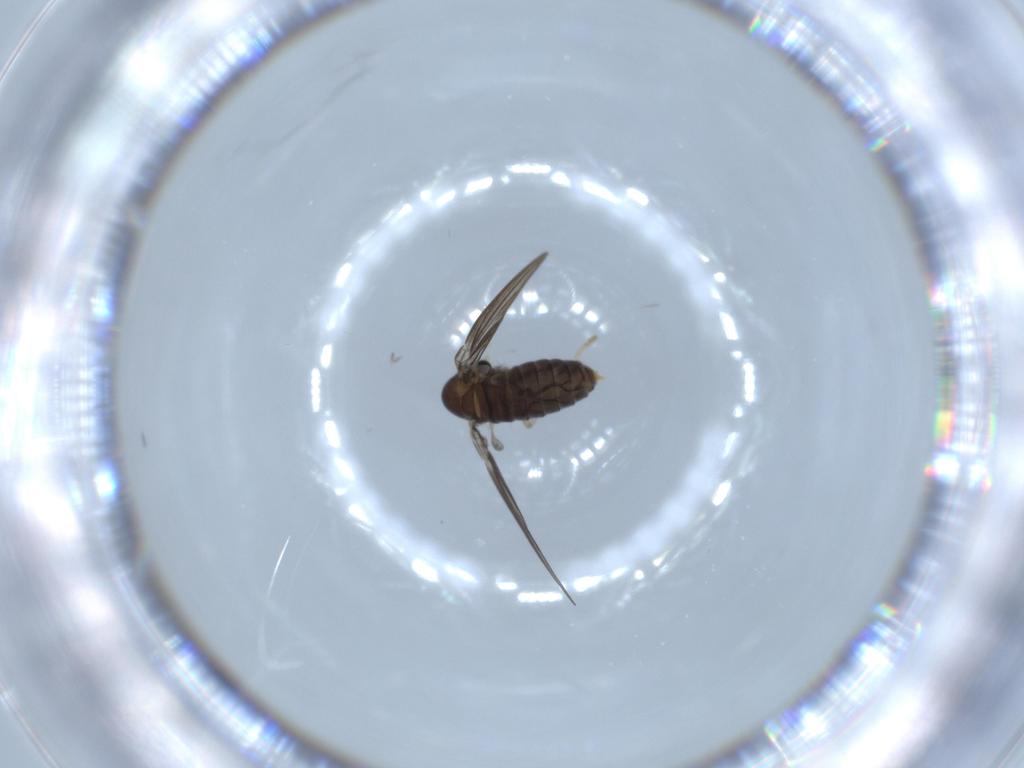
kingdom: Animalia
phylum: Arthropoda
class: Insecta
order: Diptera
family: Psychodidae
